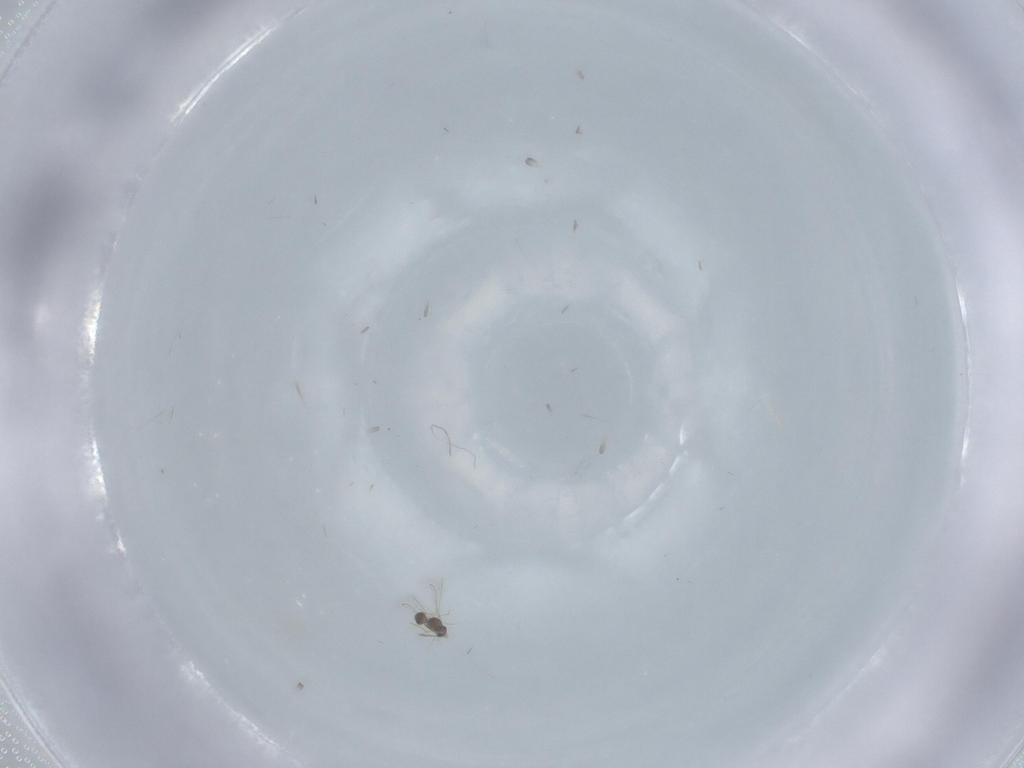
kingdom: Animalia
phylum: Arthropoda
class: Insecta
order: Hymenoptera
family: Mymaridae
